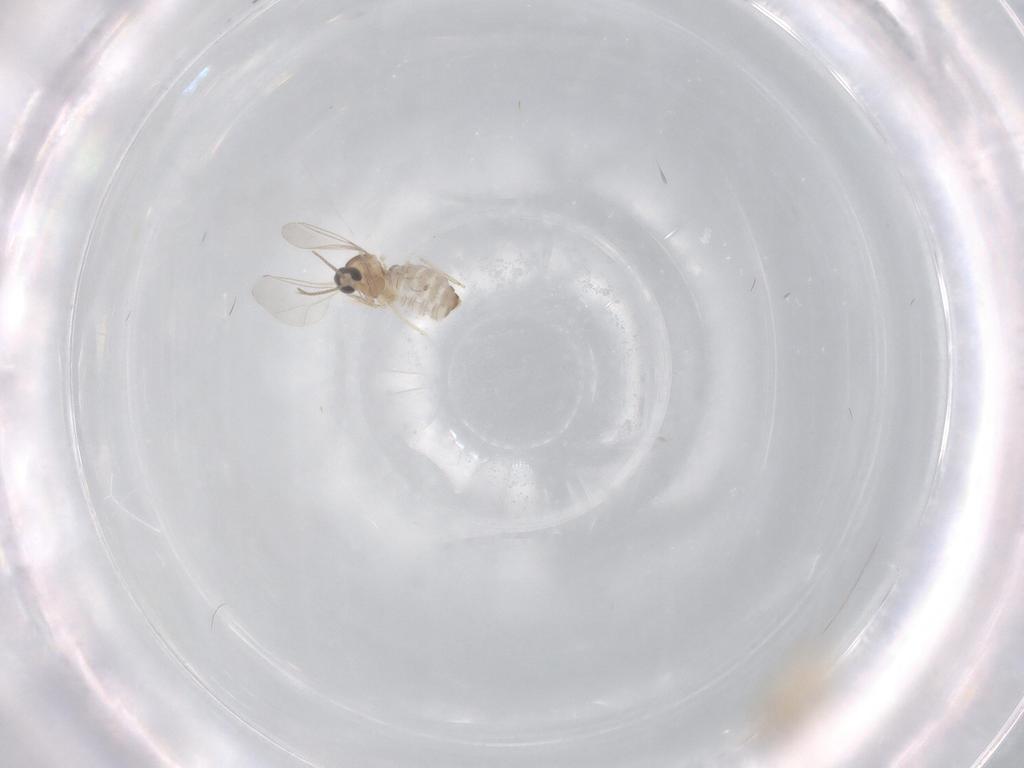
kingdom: Animalia
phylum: Arthropoda
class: Insecta
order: Diptera
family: Cecidomyiidae
